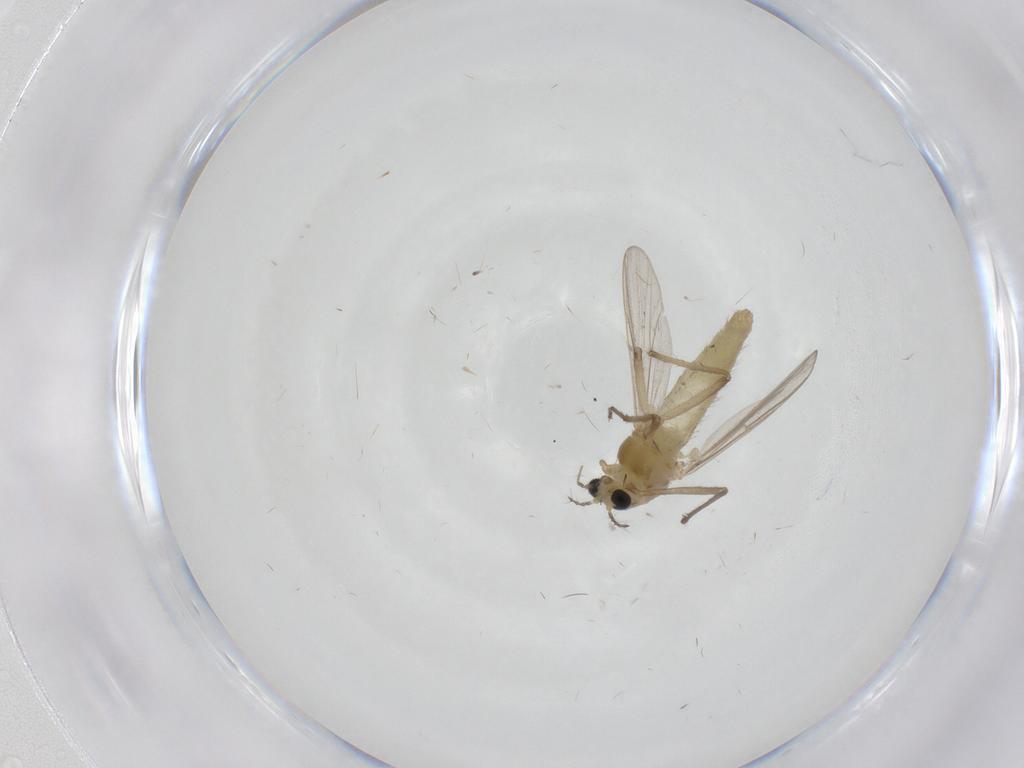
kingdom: Animalia
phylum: Arthropoda
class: Insecta
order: Diptera
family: Chironomidae
